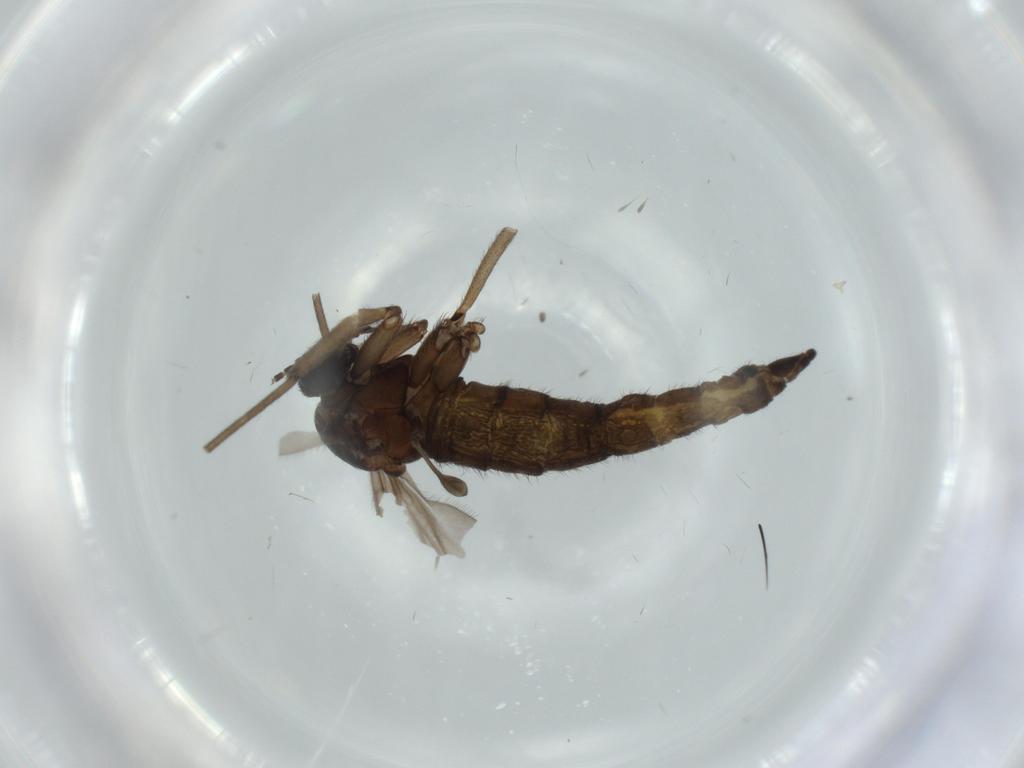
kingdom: Animalia
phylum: Arthropoda
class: Insecta
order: Diptera
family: Sciaridae
